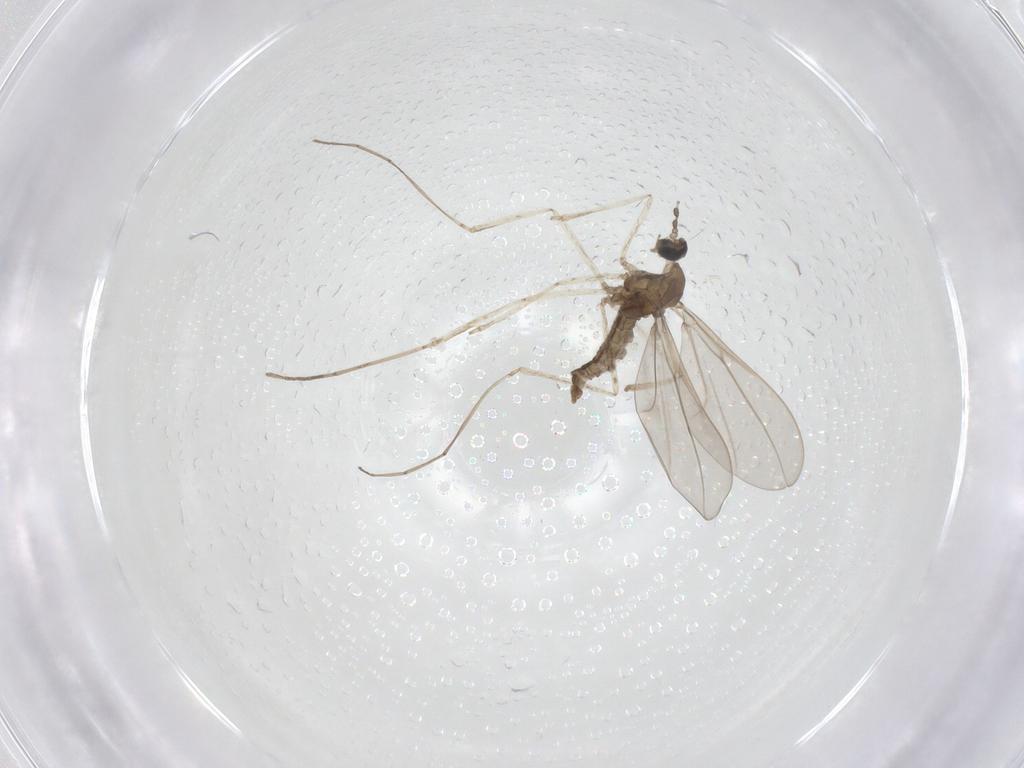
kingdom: Animalia
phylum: Arthropoda
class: Insecta
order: Diptera
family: Cecidomyiidae
